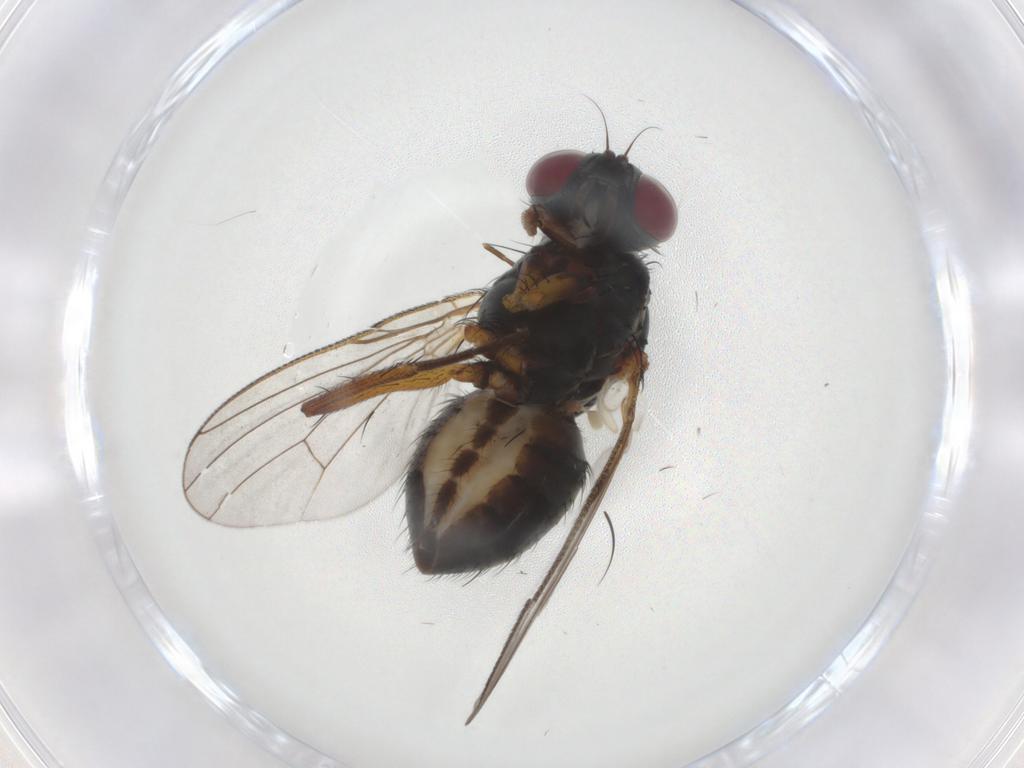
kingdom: Animalia
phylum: Arthropoda
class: Insecta
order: Diptera
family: Muscidae
